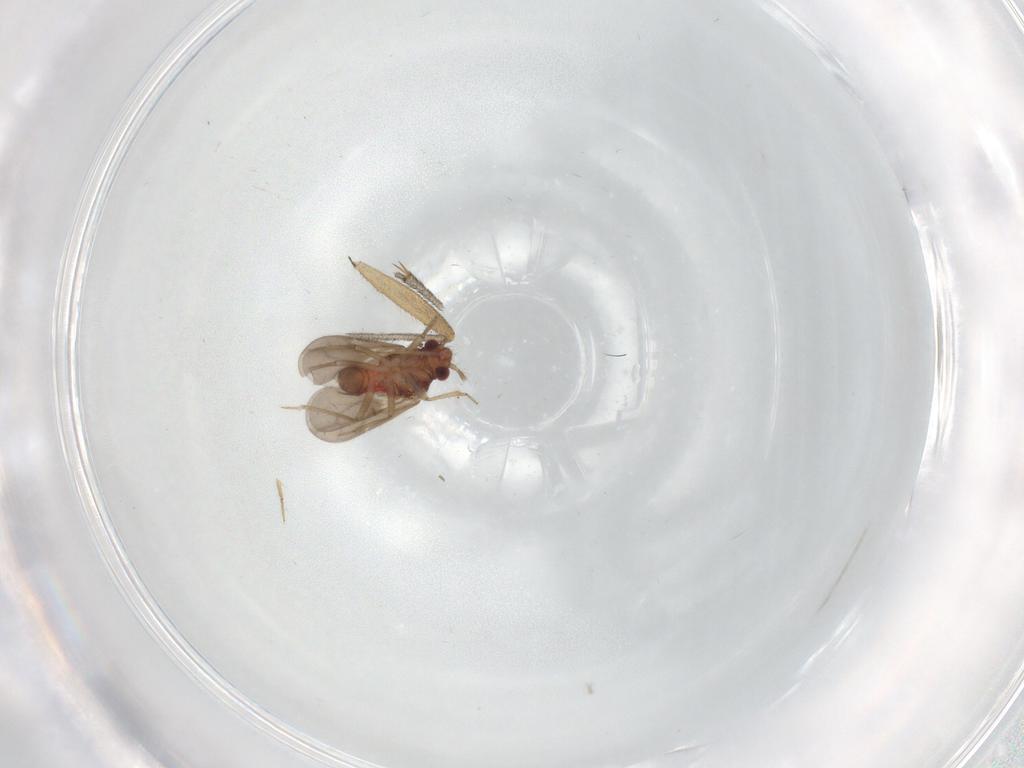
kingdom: Animalia
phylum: Arthropoda
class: Insecta
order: Hemiptera
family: Ceratocombidae
